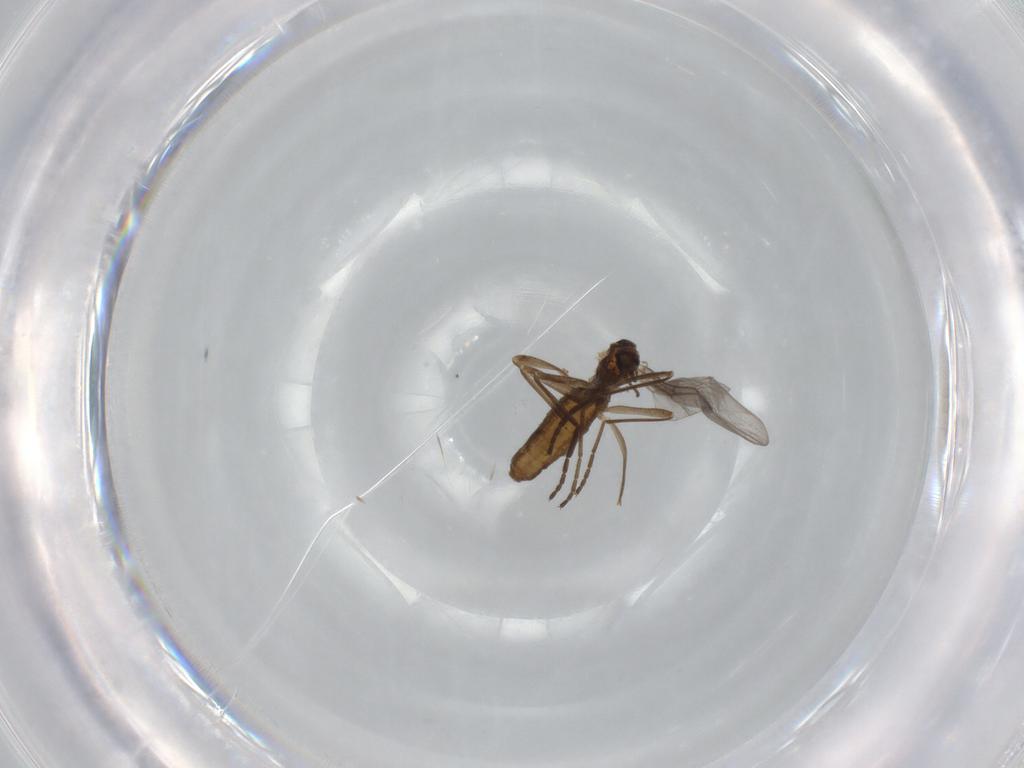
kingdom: Animalia
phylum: Arthropoda
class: Insecta
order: Diptera
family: Cecidomyiidae
